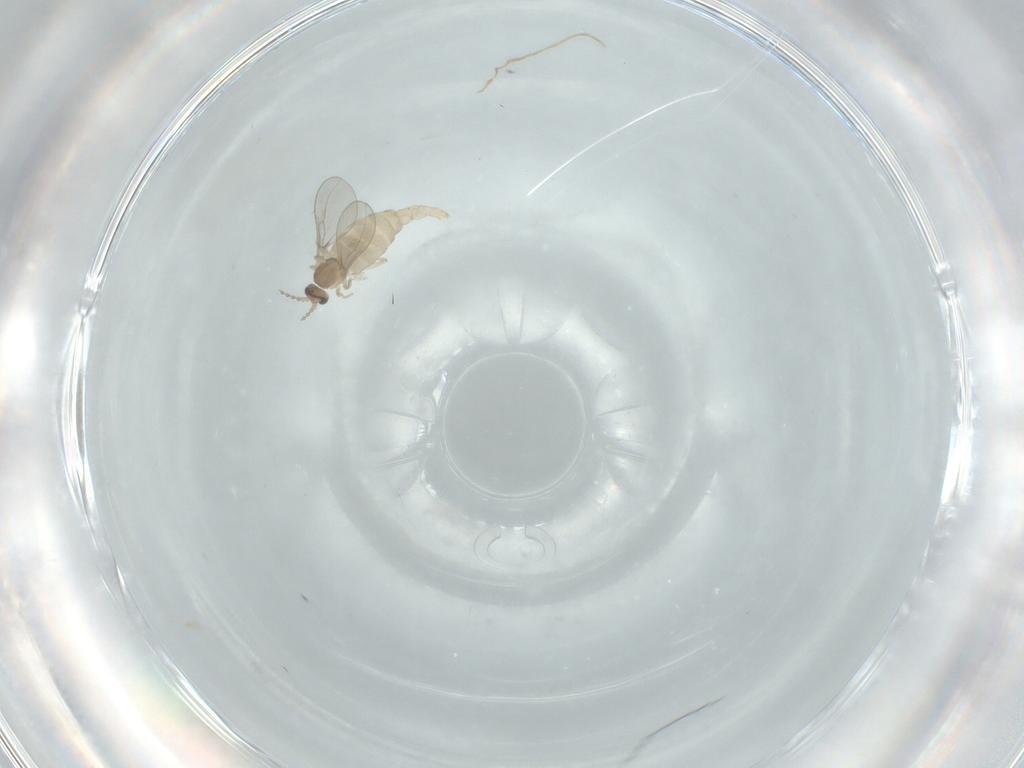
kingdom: Animalia
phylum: Arthropoda
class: Insecta
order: Diptera
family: Cecidomyiidae
